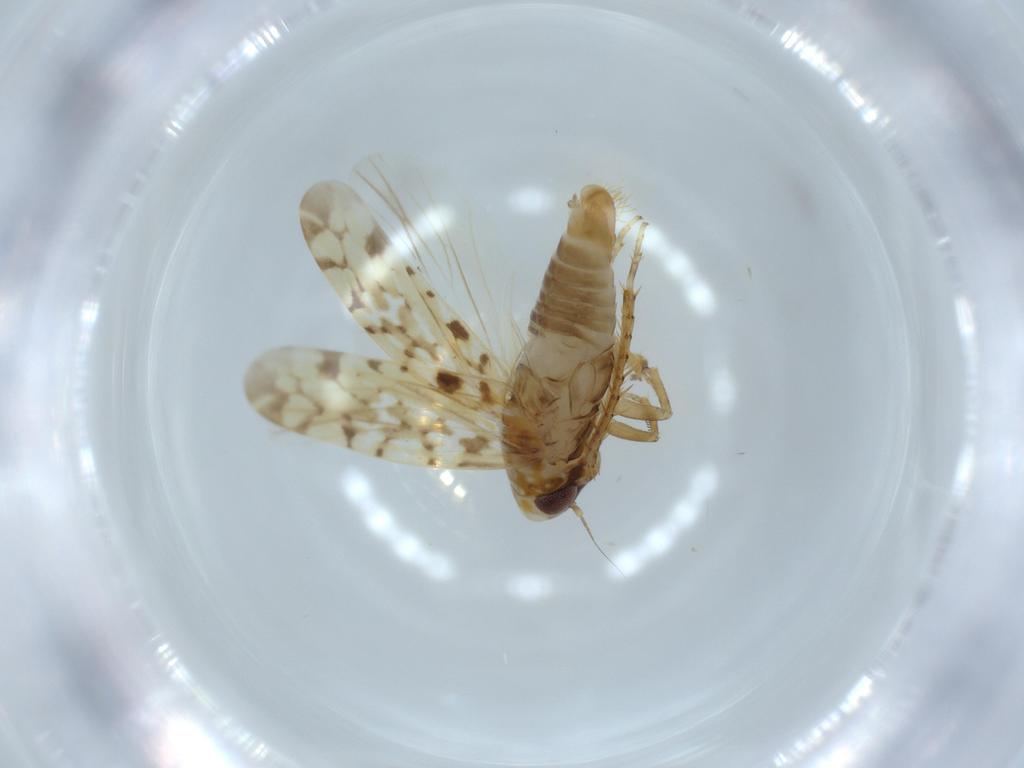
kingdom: Animalia
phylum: Arthropoda
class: Insecta
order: Hemiptera
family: Cicadellidae
